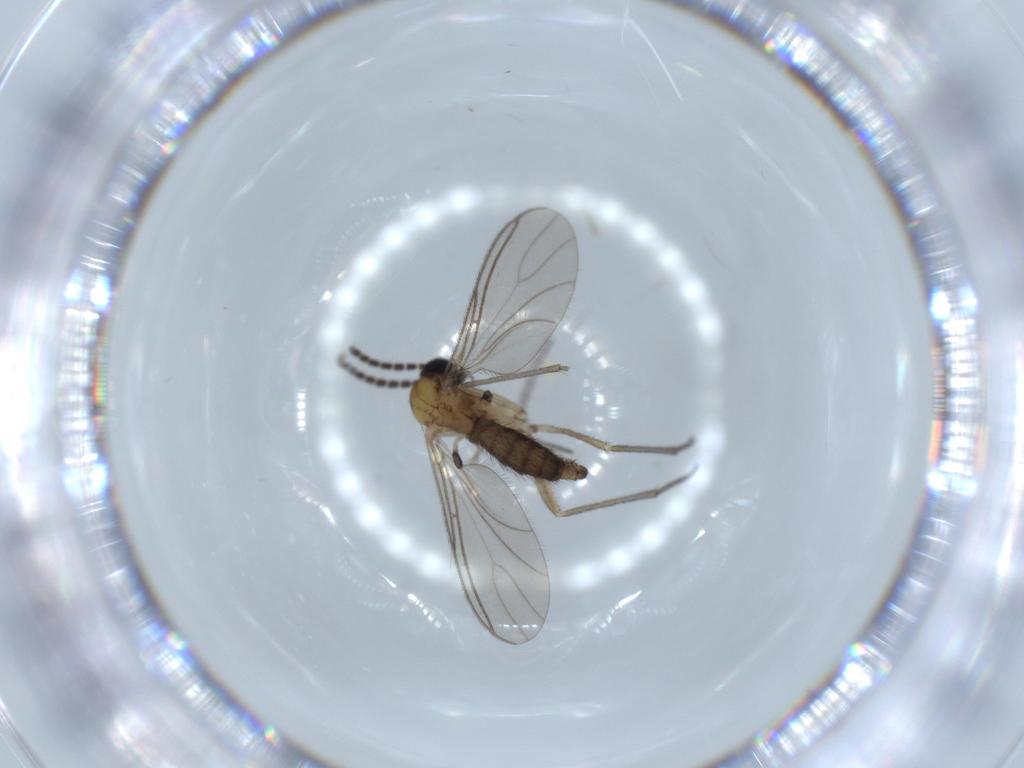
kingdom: Animalia
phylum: Arthropoda
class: Insecta
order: Diptera
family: Sciaridae
